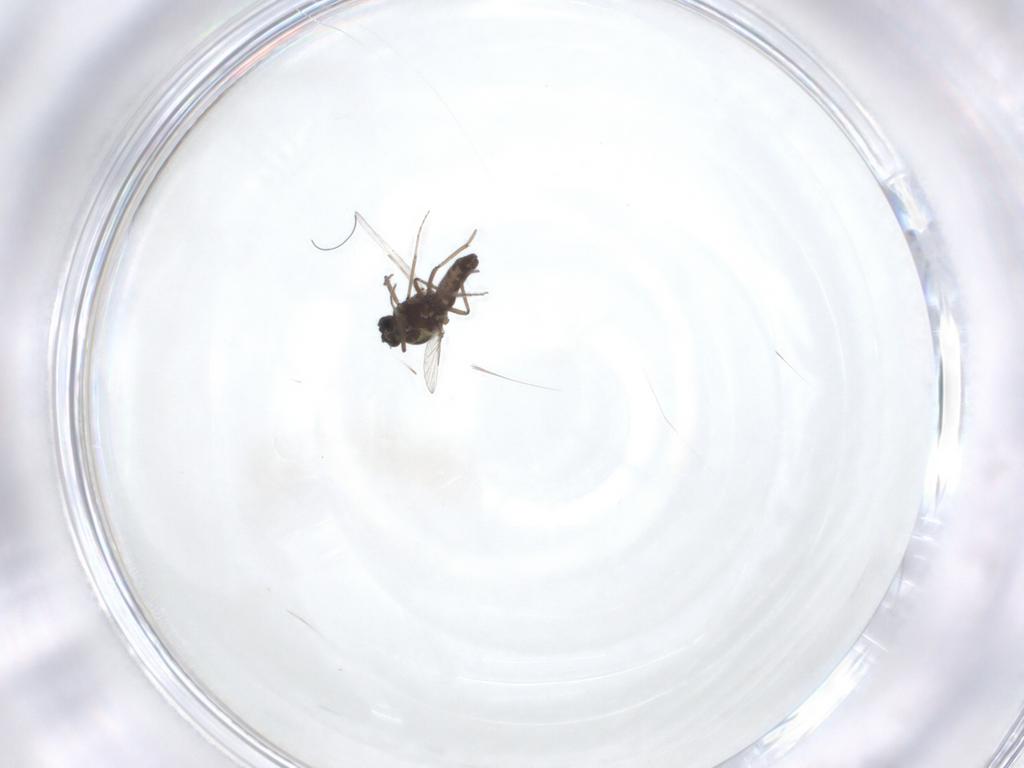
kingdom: Animalia
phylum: Arthropoda
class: Insecta
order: Diptera
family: Ceratopogonidae
